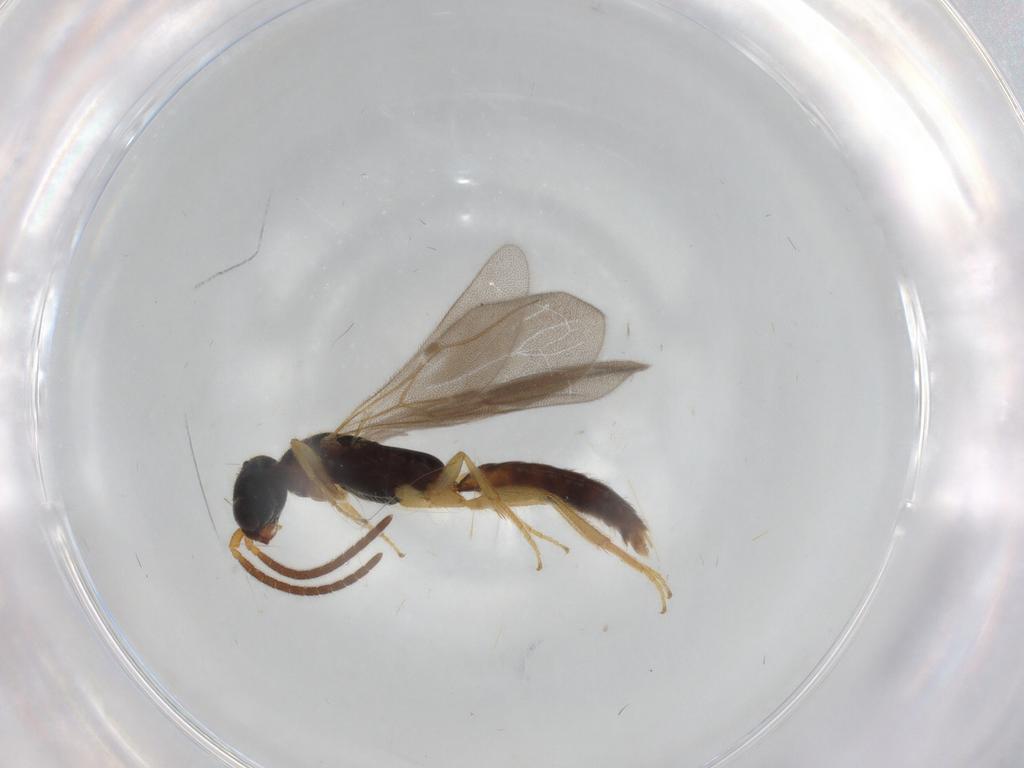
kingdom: Animalia
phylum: Arthropoda
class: Insecta
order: Hymenoptera
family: Bethylidae
